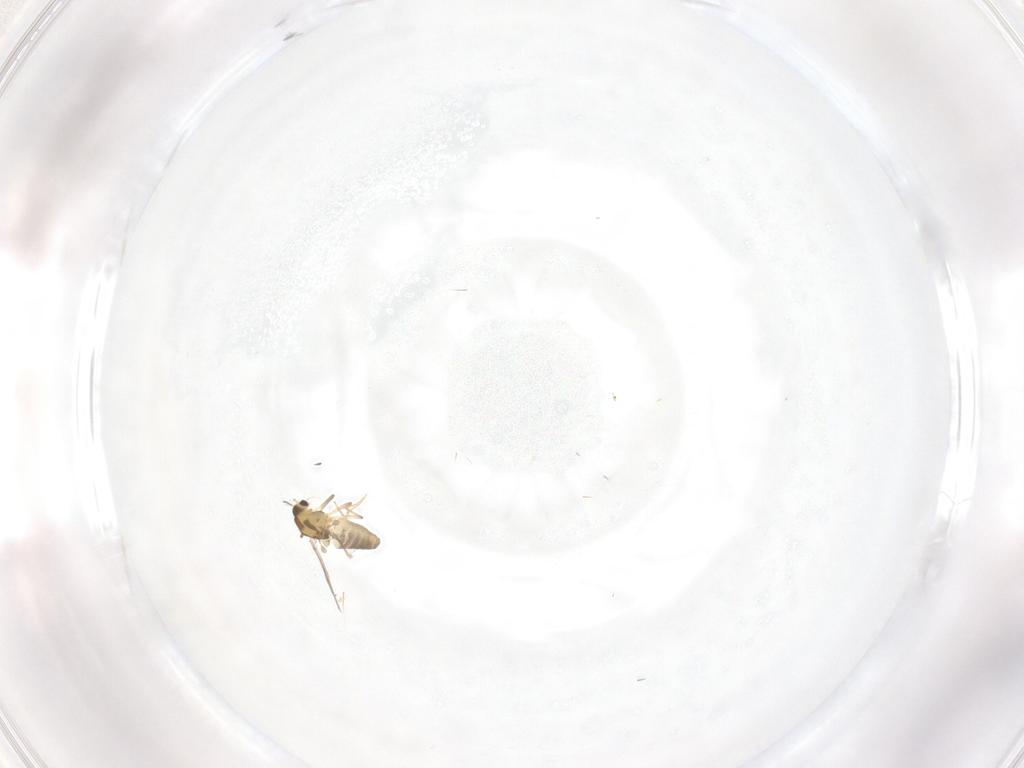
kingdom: Animalia
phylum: Arthropoda
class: Insecta
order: Diptera
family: Chironomidae
